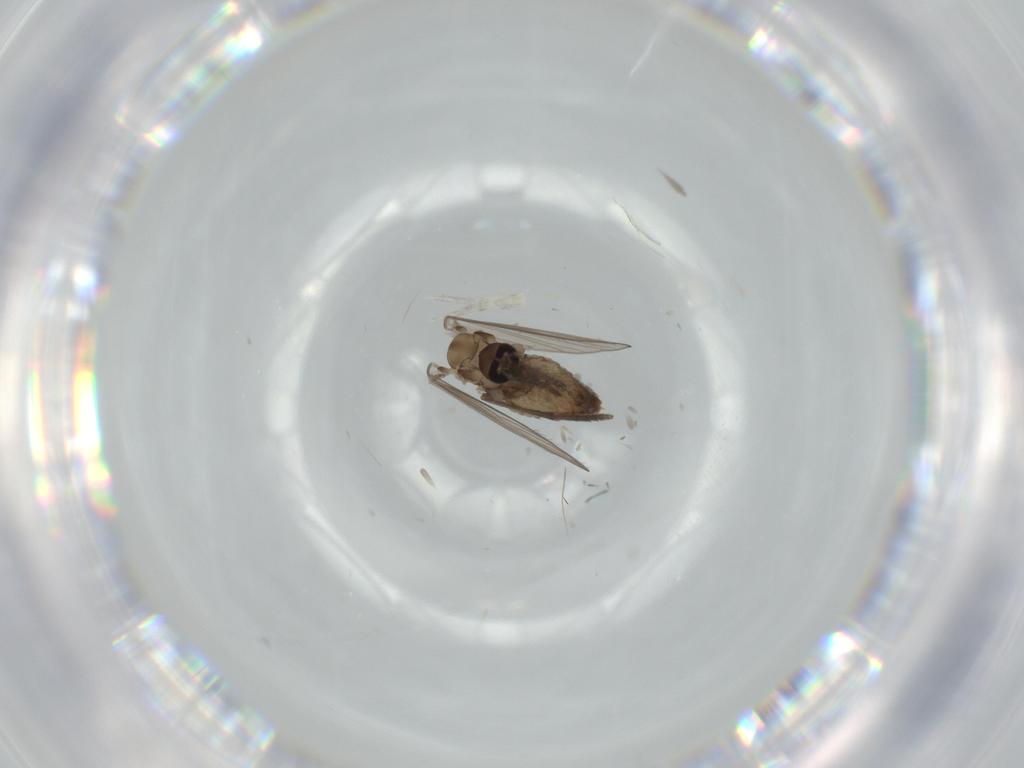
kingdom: Animalia
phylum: Arthropoda
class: Insecta
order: Diptera
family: Psychodidae
